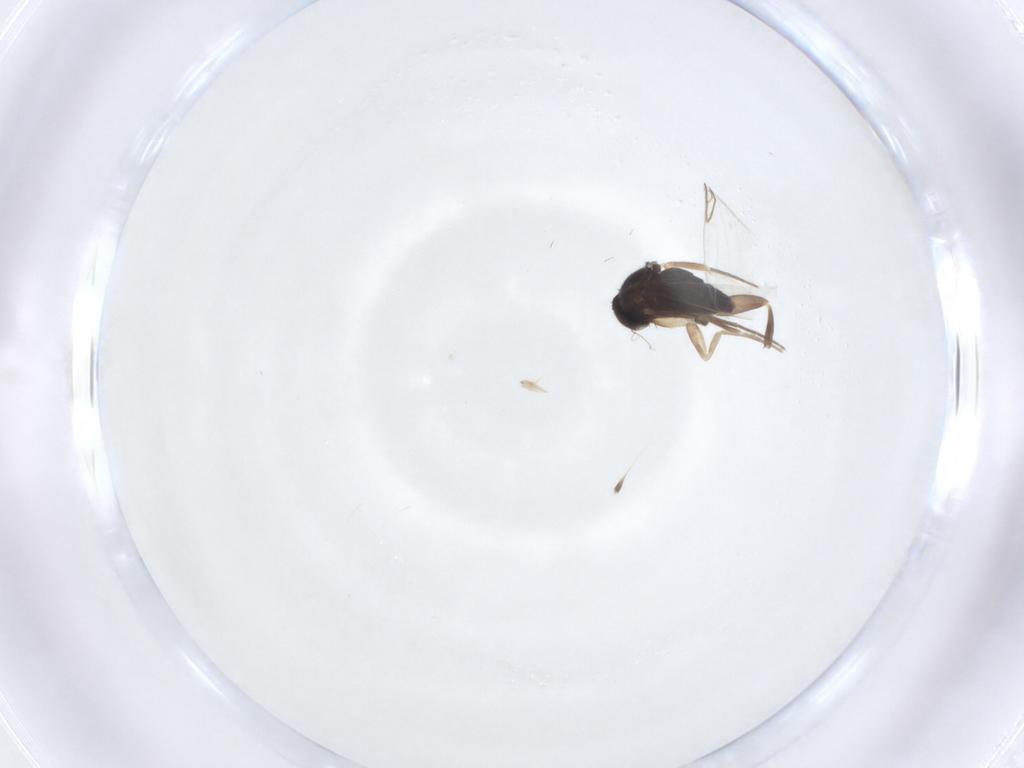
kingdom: Animalia
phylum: Arthropoda
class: Insecta
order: Diptera
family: Phoridae
